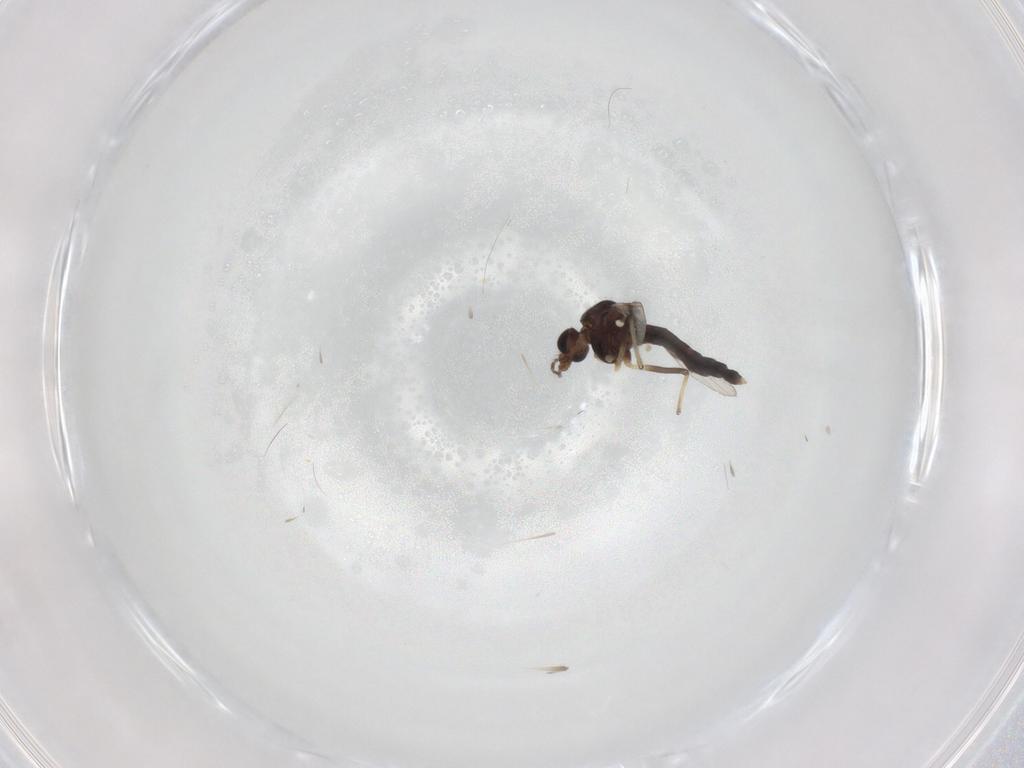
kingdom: Animalia
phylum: Arthropoda
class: Insecta
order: Diptera
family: Chironomidae
